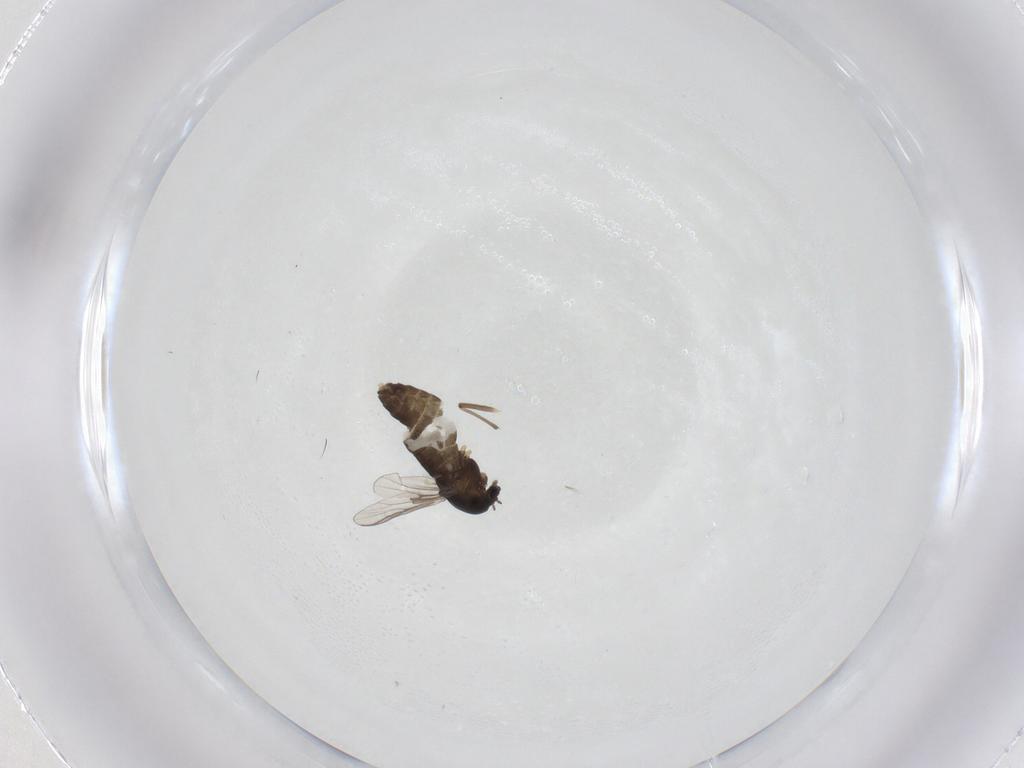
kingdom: Animalia
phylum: Arthropoda
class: Insecta
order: Diptera
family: Chironomidae
